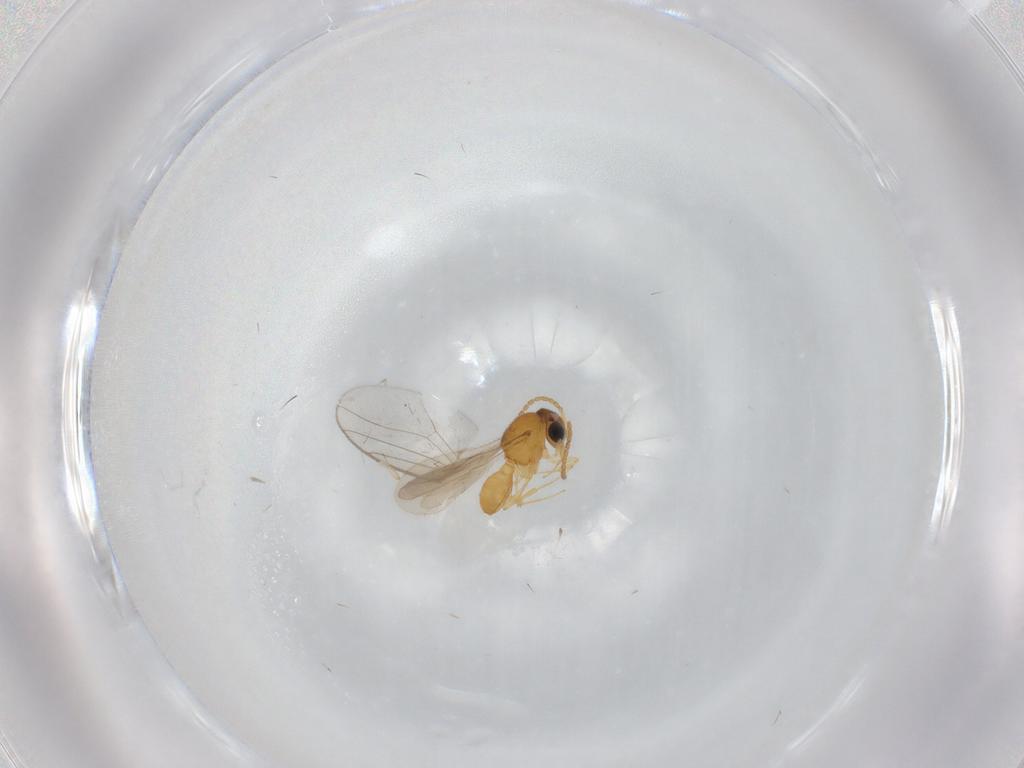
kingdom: Animalia
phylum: Arthropoda
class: Insecta
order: Hymenoptera
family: Scelionidae
